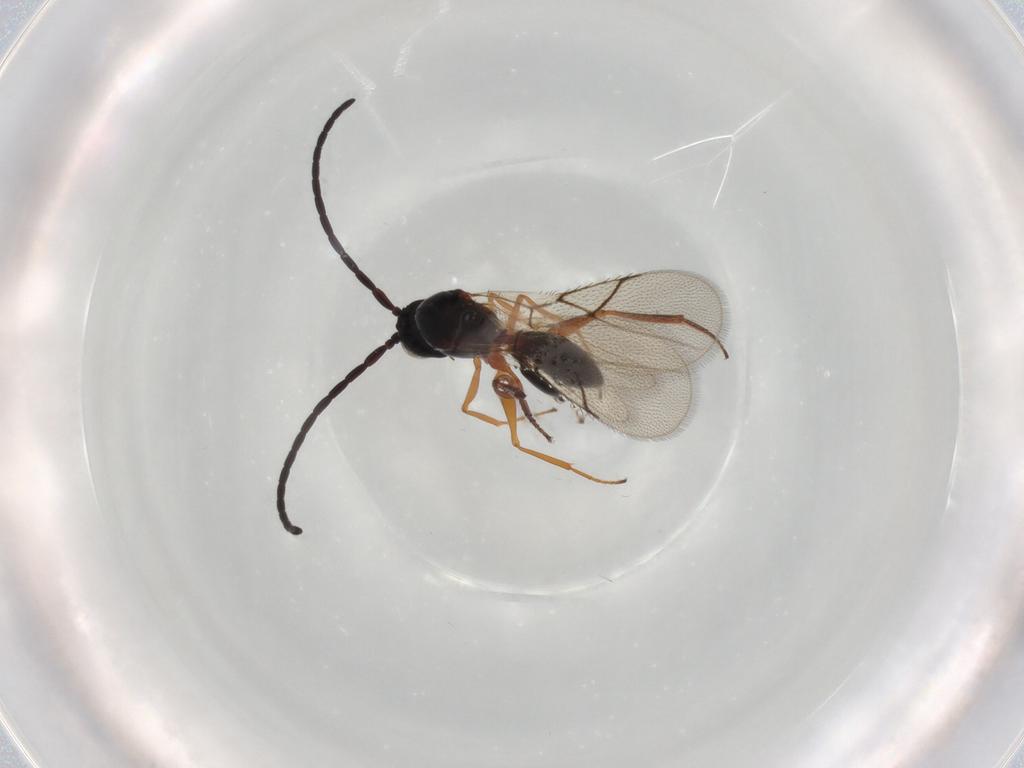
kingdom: Animalia
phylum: Arthropoda
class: Insecta
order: Hymenoptera
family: Figitidae
